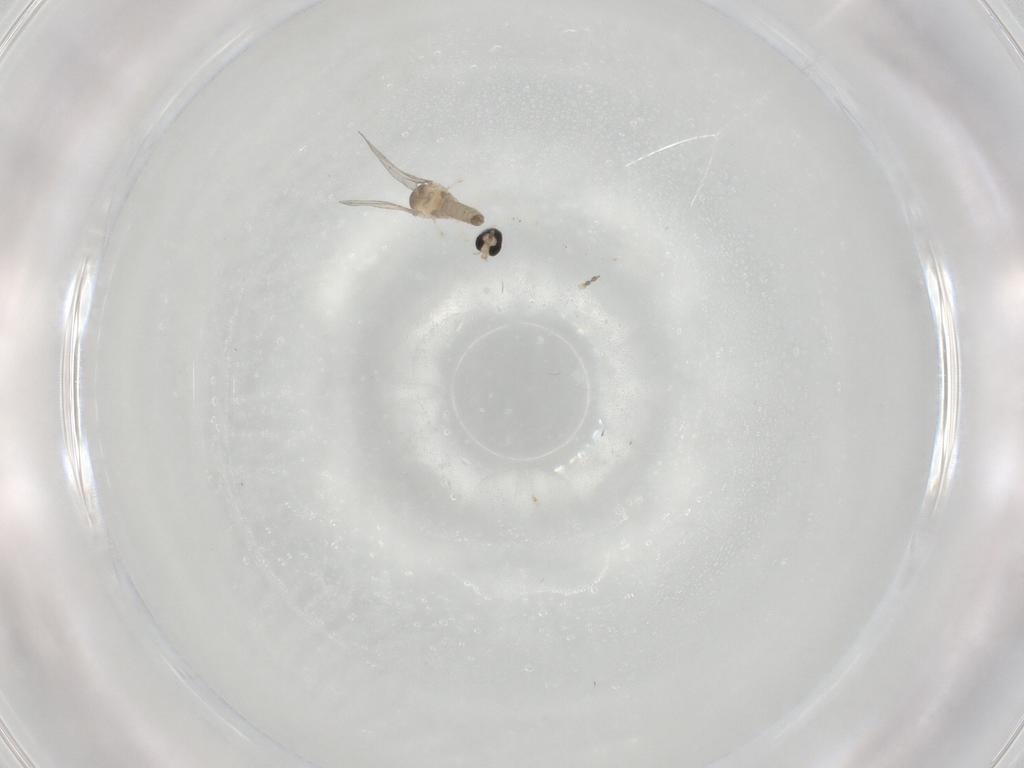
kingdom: Animalia
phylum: Arthropoda
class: Insecta
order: Diptera
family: Cecidomyiidae
